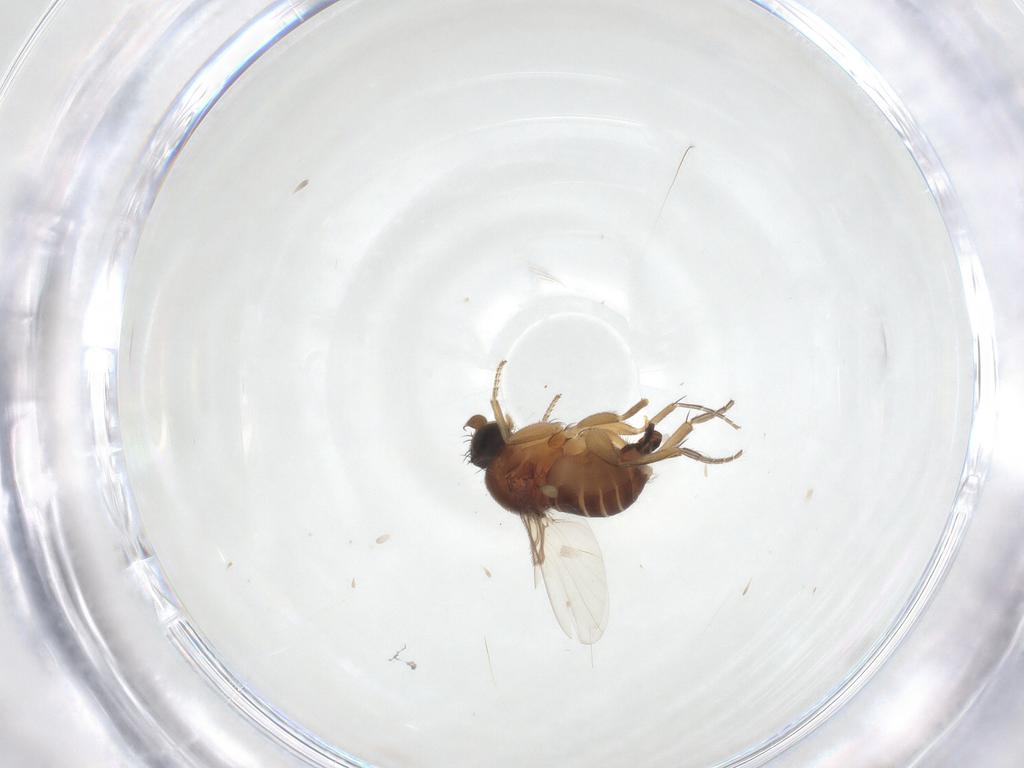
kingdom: Animalia
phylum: Arthropoda
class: Insecta
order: Diptera
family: Phoridae
